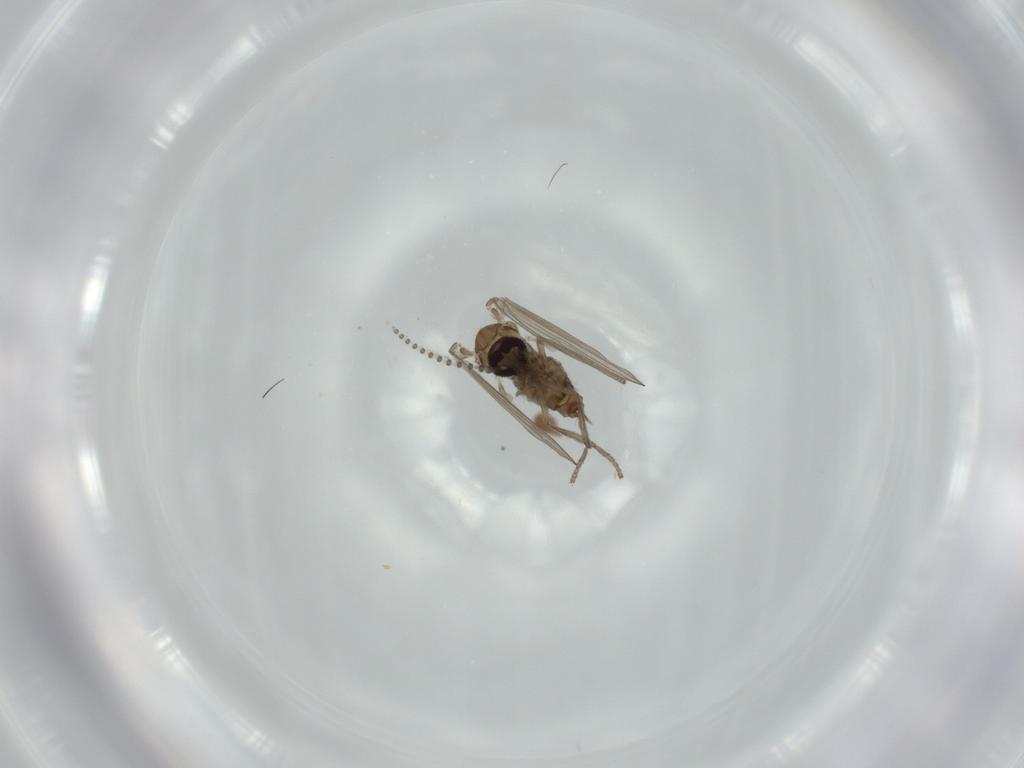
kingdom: Animalia
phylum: Arthropoda
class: Insecta
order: Diptera
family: Psychodidae
